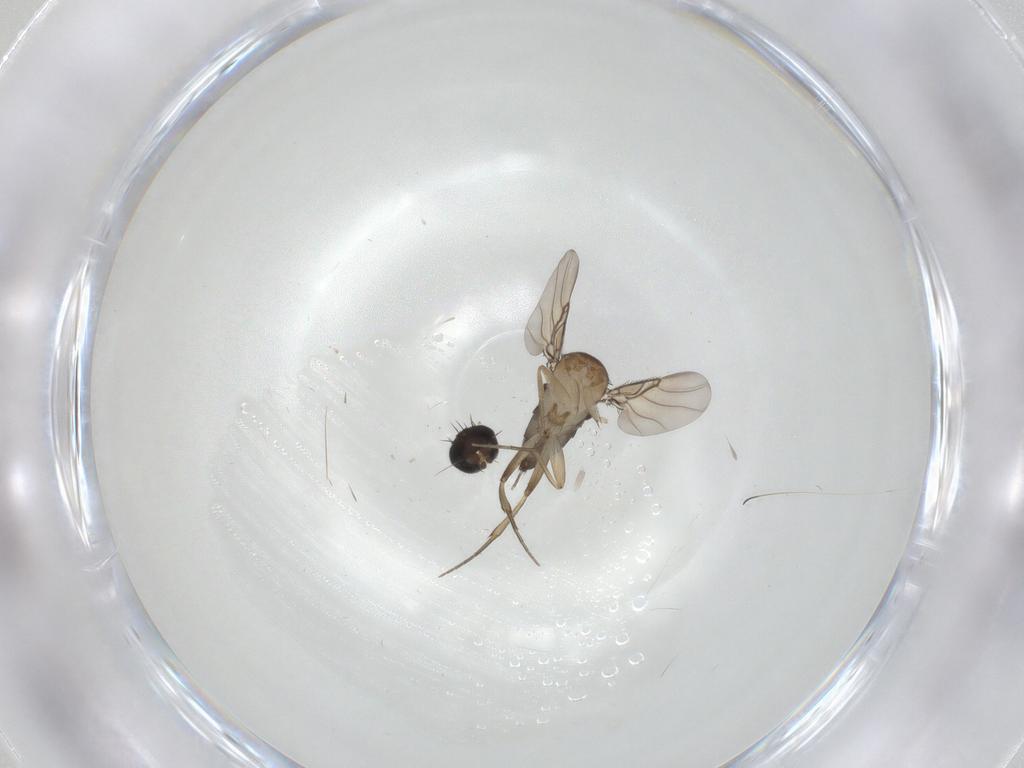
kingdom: Animalia
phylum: Arthropoda
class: Insecta
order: Diptera
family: Phoridae
